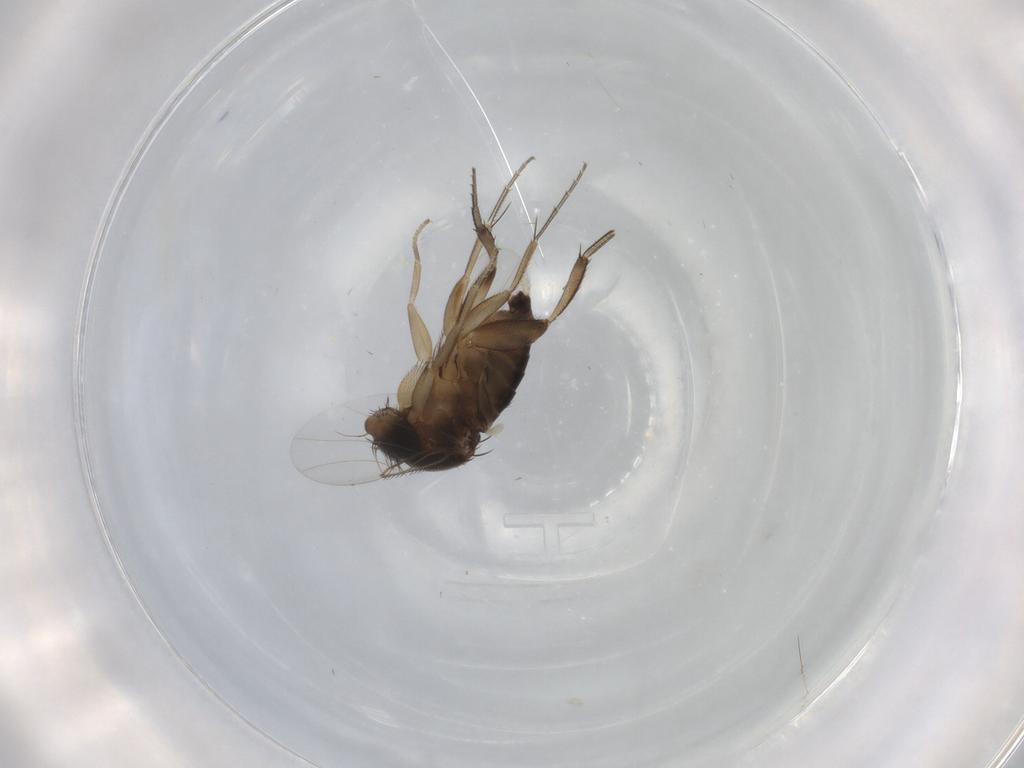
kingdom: Animalia
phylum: Arthropoda
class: Insecta
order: Diptera
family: Phoridae
